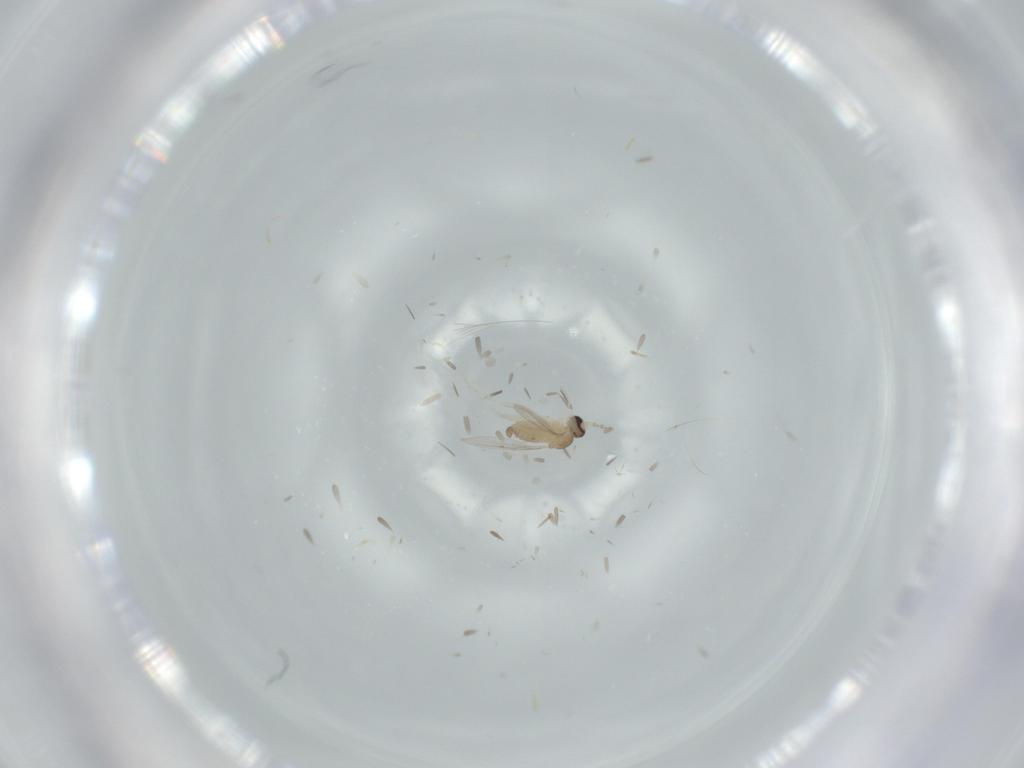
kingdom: Animalia
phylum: Arthropoda
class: Insecta
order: Diptera
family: Cecidomyiidae
